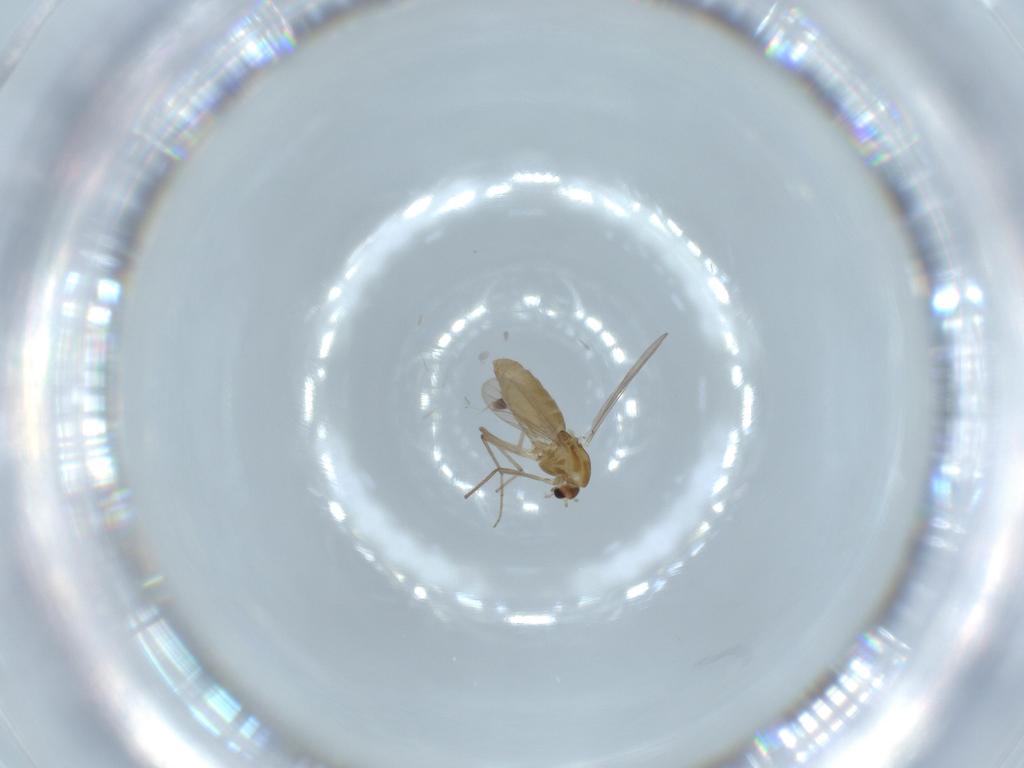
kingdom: Animalia
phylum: Arthropoda
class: Insecta
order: Diptera
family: Chironomidae
